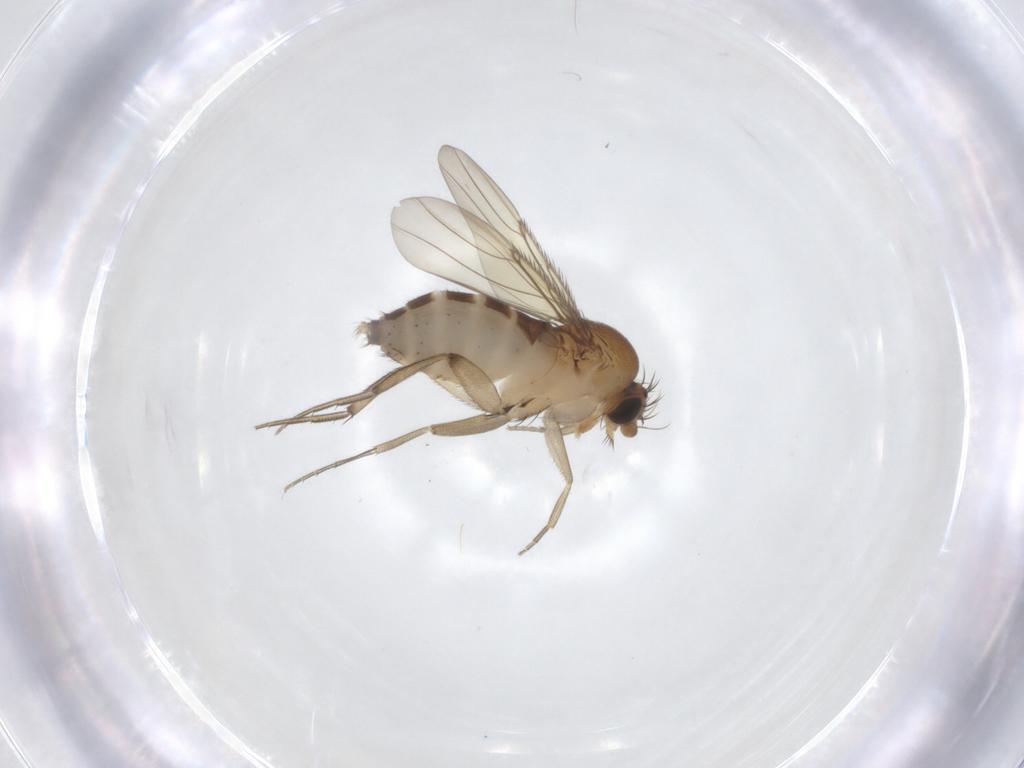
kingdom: Animalia
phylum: Arthropoda
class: Insecta
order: Diptera
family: Phoridae
